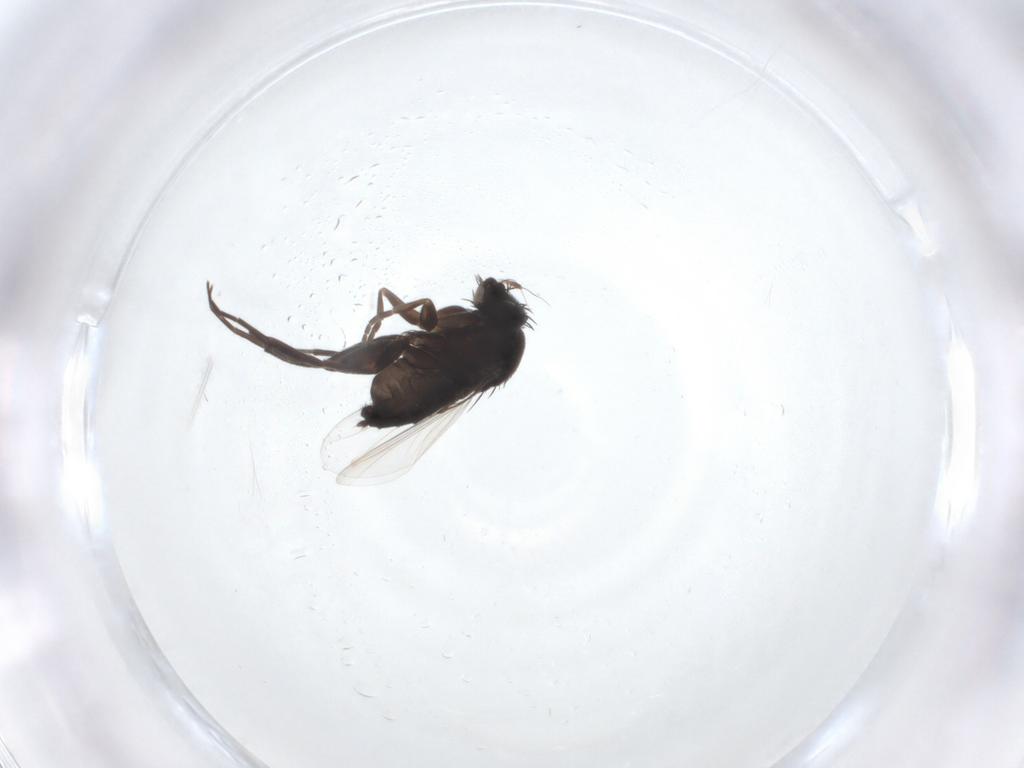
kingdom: Animalia
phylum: Arthropoda
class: Insecta
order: Diptera
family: Phoridae
